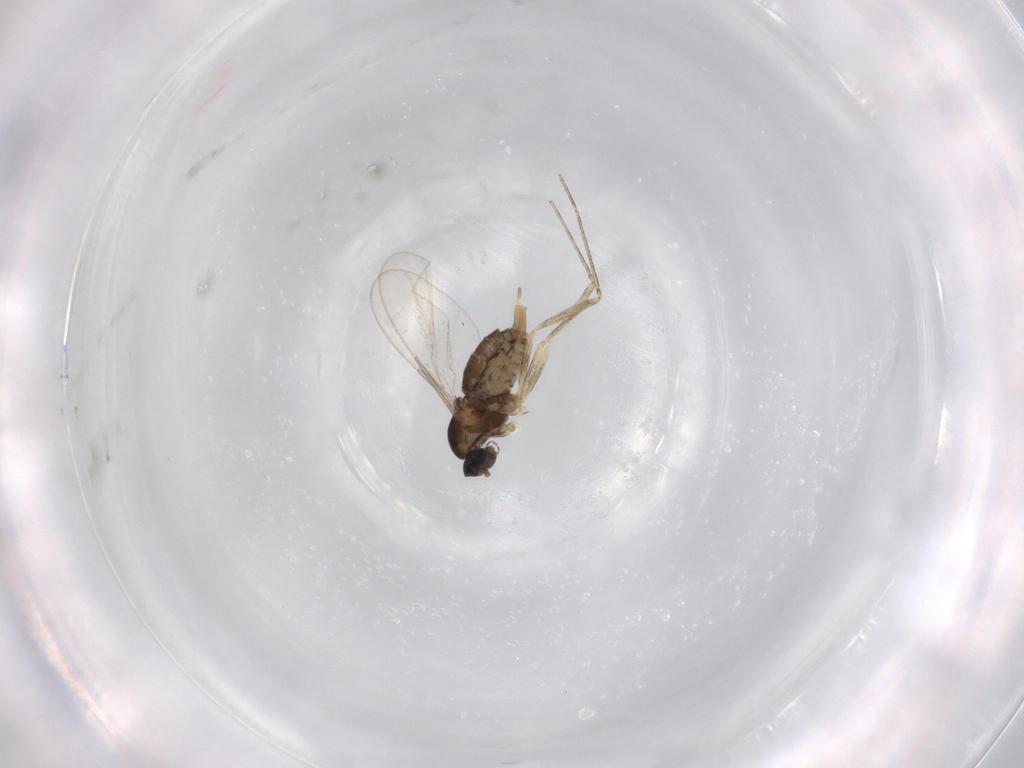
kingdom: Animalia
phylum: Arthropoda
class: Insecta
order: Diptera
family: Cecidomyiidae
